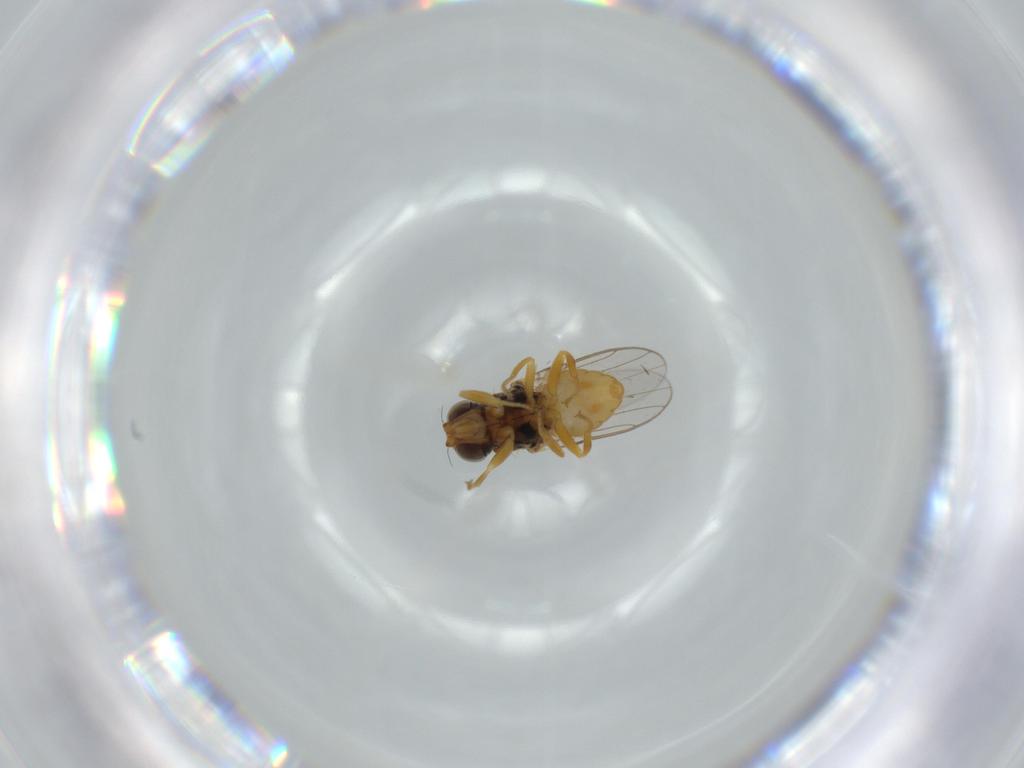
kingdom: Animalia
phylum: Arthropoda
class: Insecta
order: Diptera
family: Chloropidae
